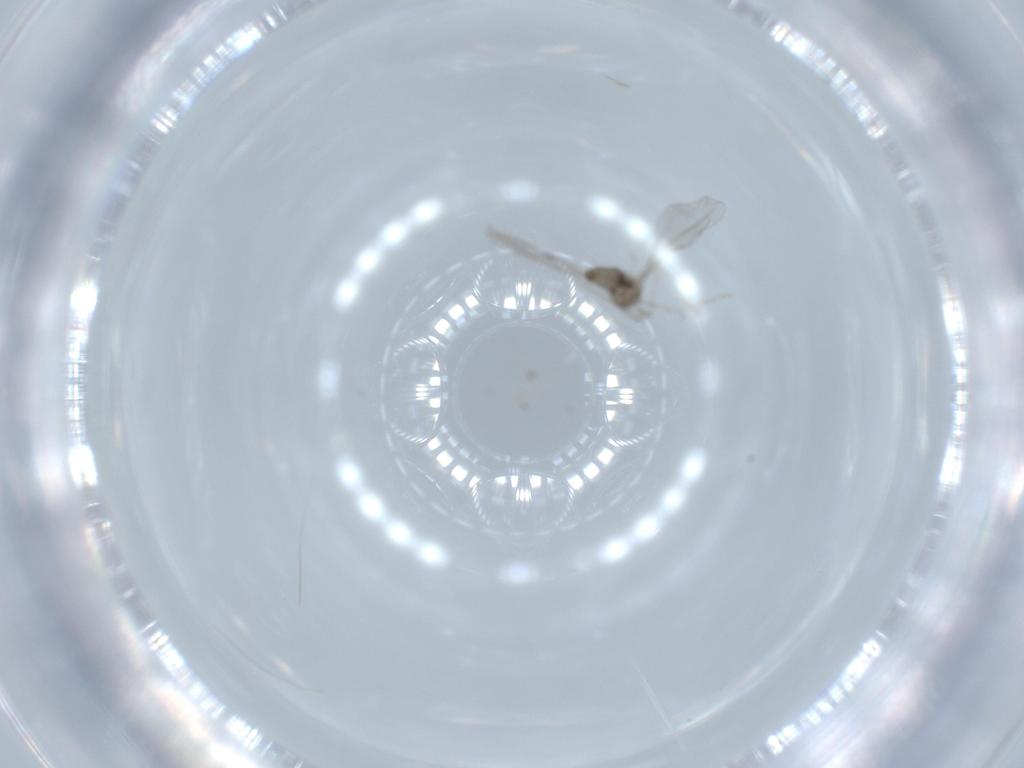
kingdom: Animalia
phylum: Arthropoda
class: Insecta
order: Diptera
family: Cecidomyiidae
